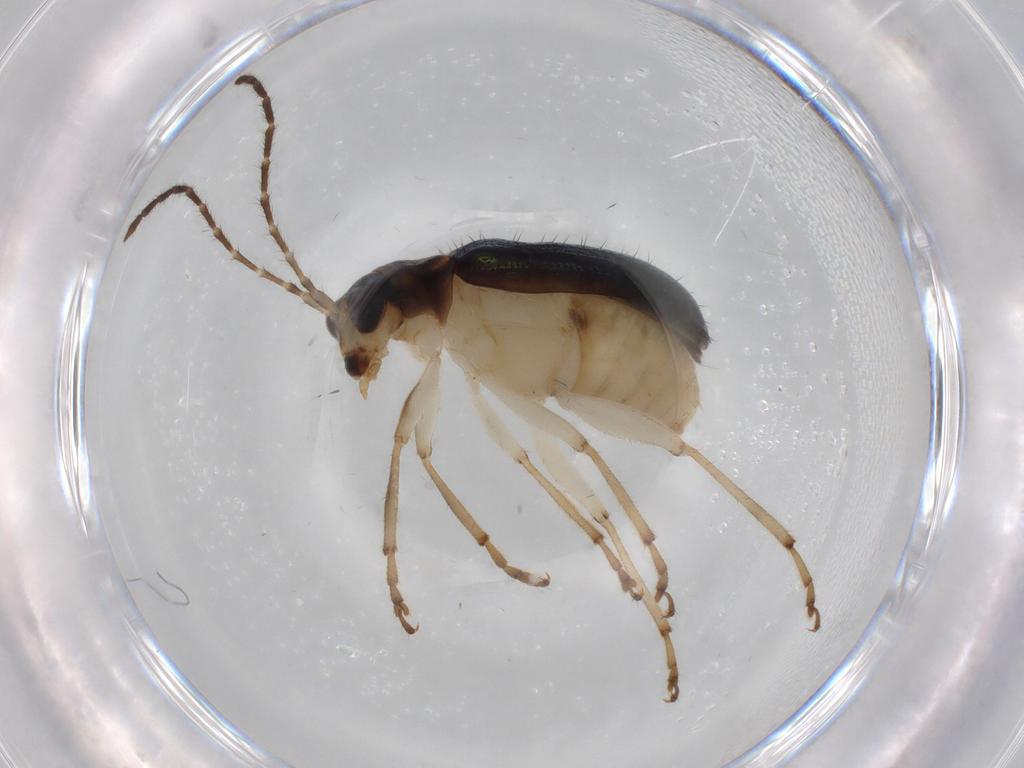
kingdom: Animalia
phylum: Arthropoda
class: Insecta
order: Coleoptera
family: Chrysomelidae
